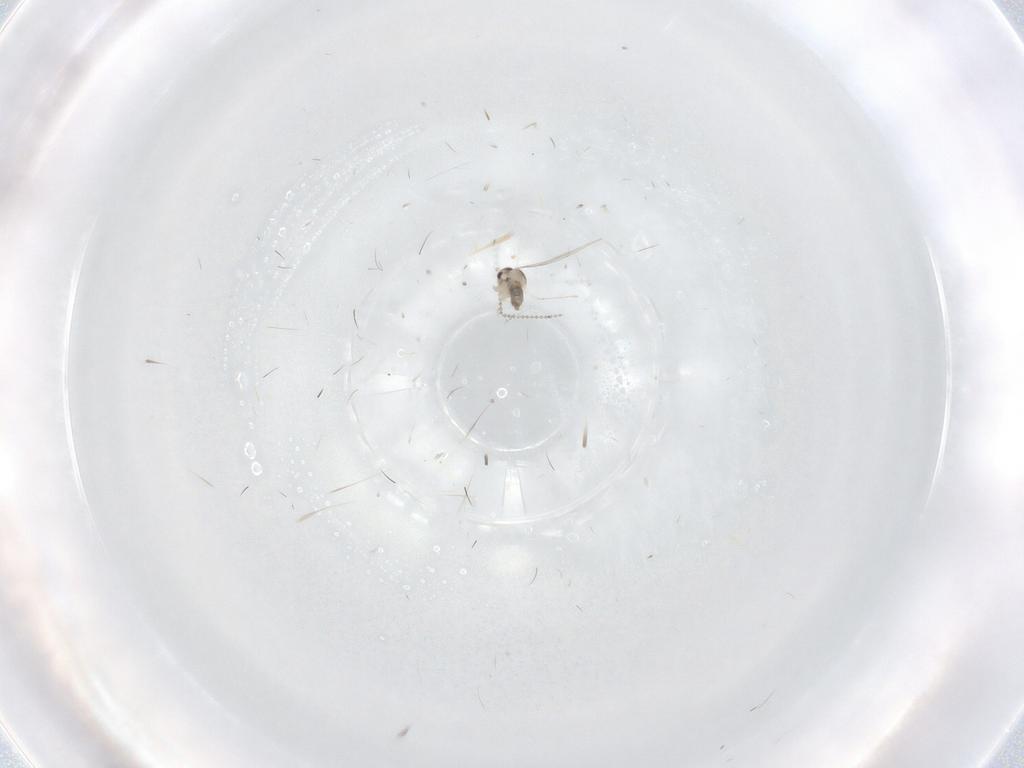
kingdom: Animalia
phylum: Arthropoda
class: Insecta
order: Diptera
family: Cecidomyiidae
